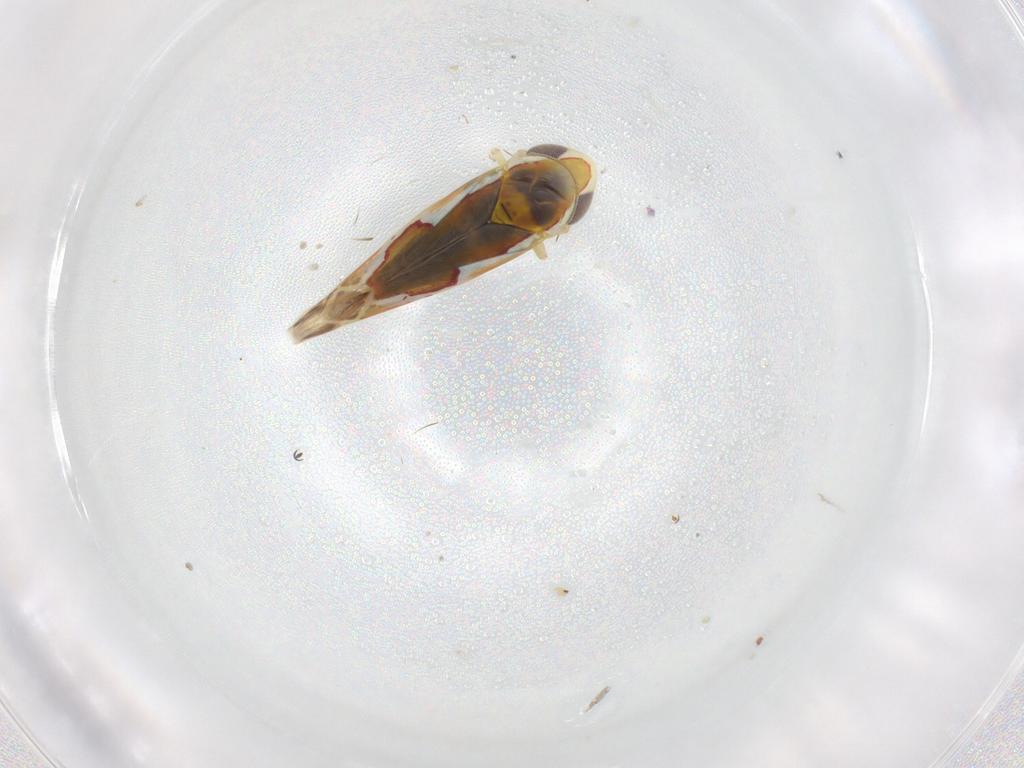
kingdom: Animalia
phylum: Arthropoda
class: Insecta
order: Hemiptera
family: Cicadellidae
